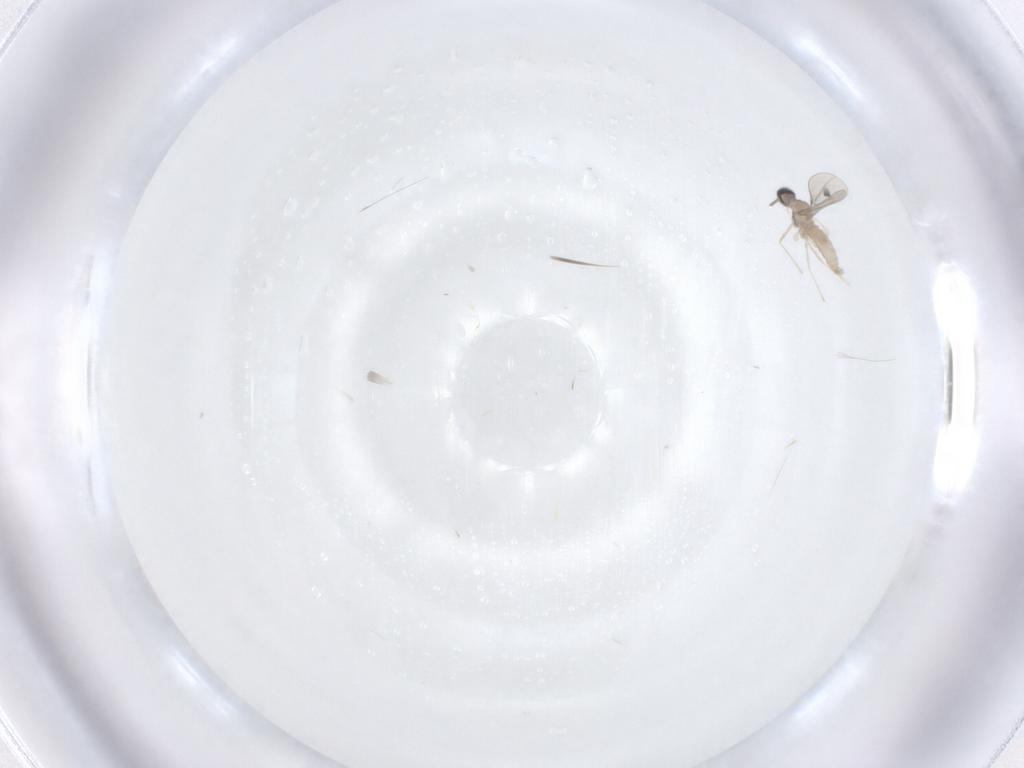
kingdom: Animalia
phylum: Arthropoda
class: Insecta
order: Diptera
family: Cecidomyiidae
